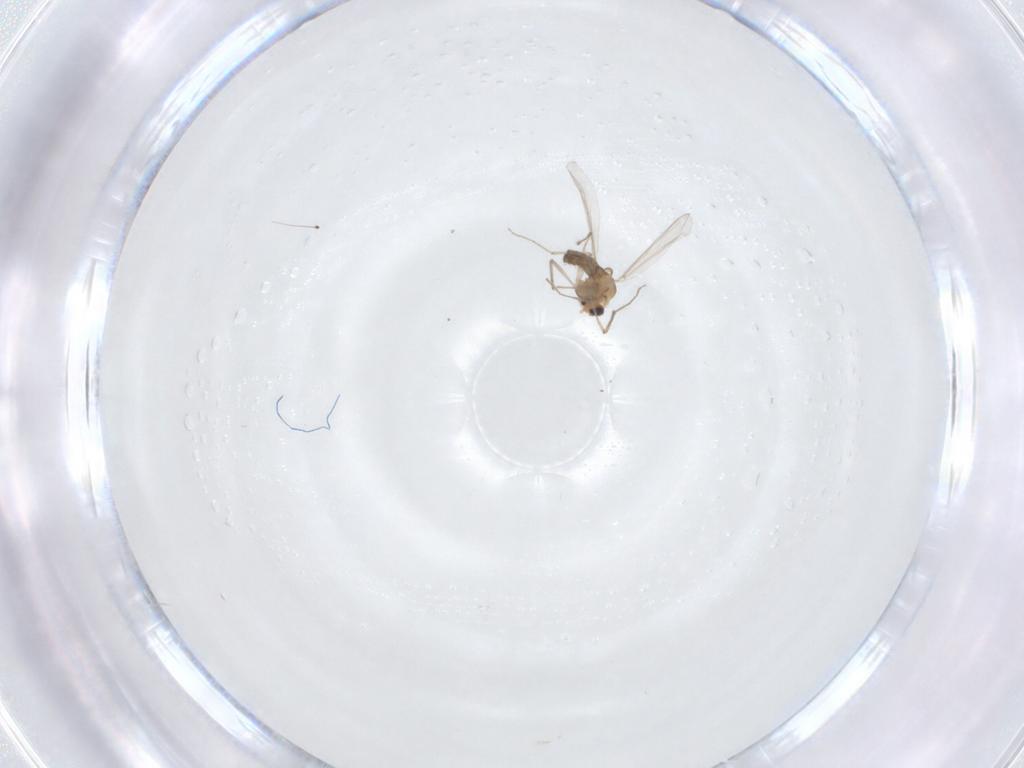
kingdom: Animalia
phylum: Arthropoda
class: Insecta
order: Diptera
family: Chironomidae
